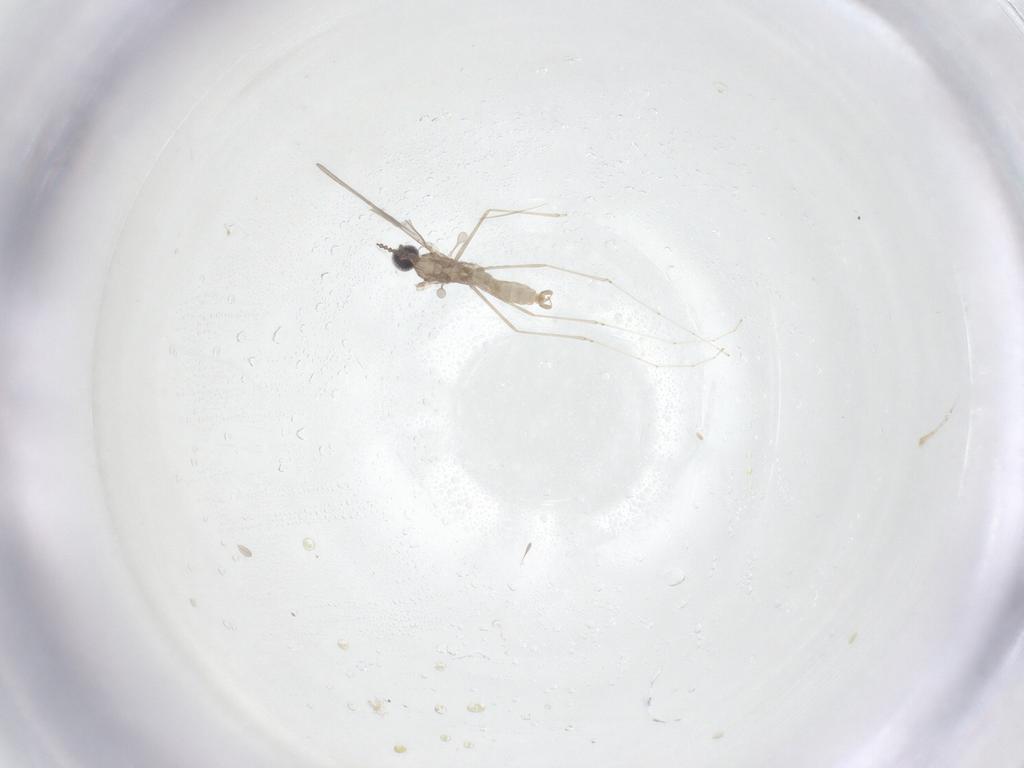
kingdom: Animalia
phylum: Arthropoda
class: Insecta
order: Diptera
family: Cecidomyiidae
